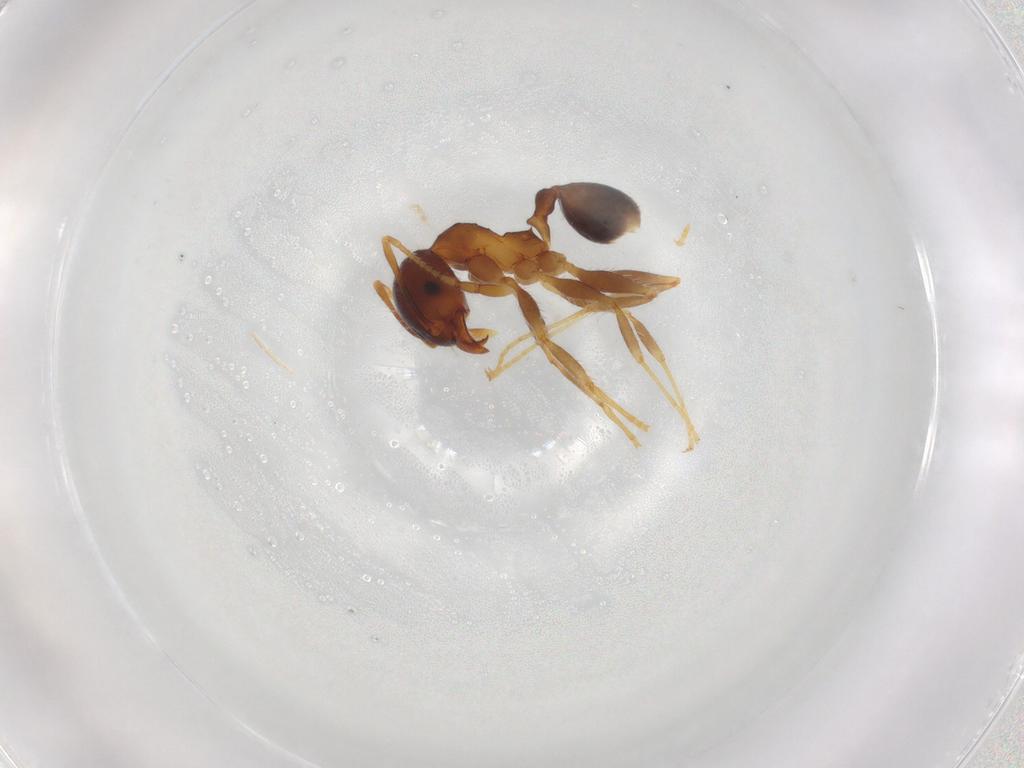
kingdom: Animalia
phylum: Arthropoda
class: Insecta
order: Hymenoptera
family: Formicidae
